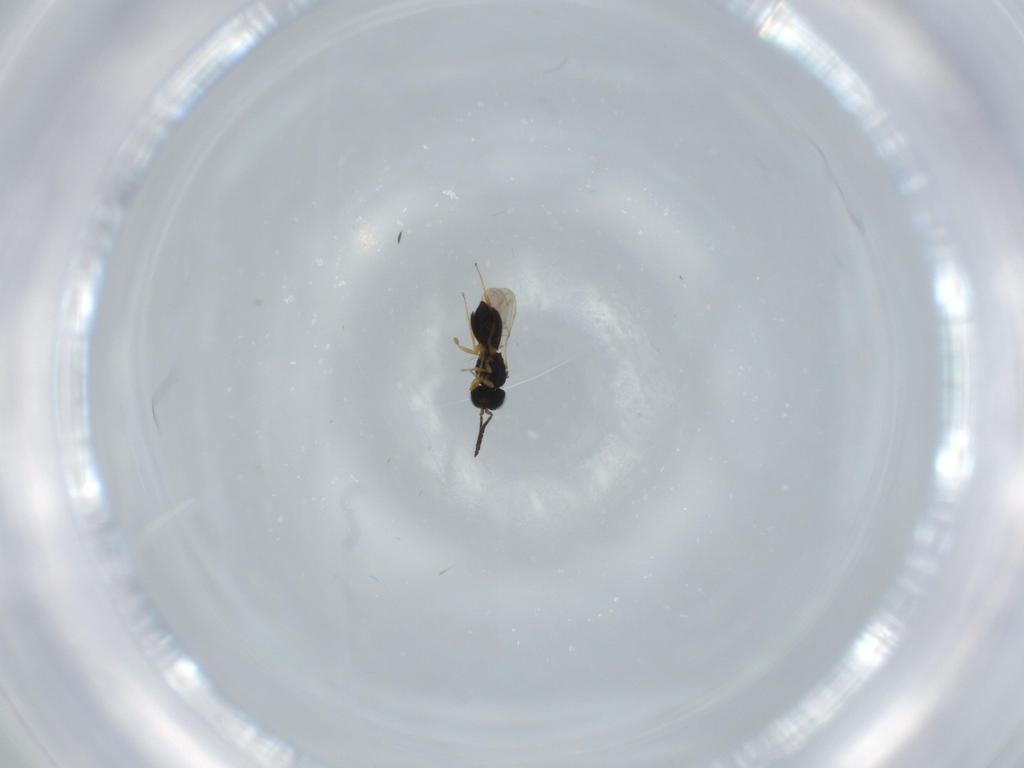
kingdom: Animalia
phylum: Arthropoda
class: Insecta
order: Hymenoptera
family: Scelionidae
